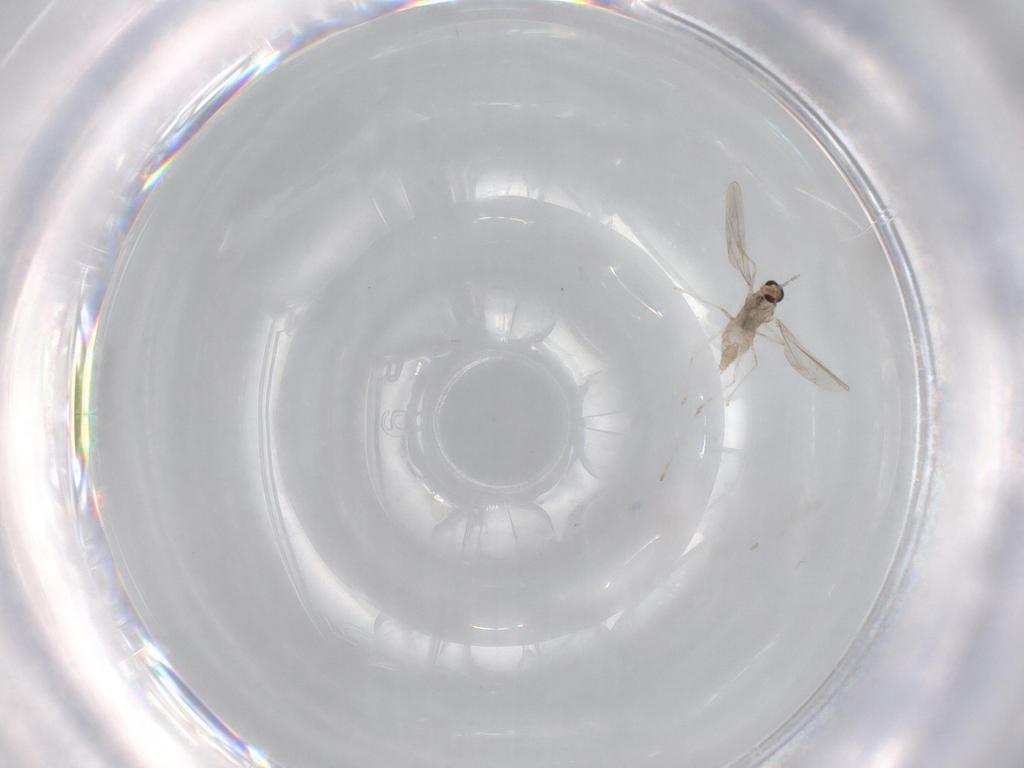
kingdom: Animalia
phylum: Arthropoda
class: Insecta
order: Diptera
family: Cecidomyiidae
